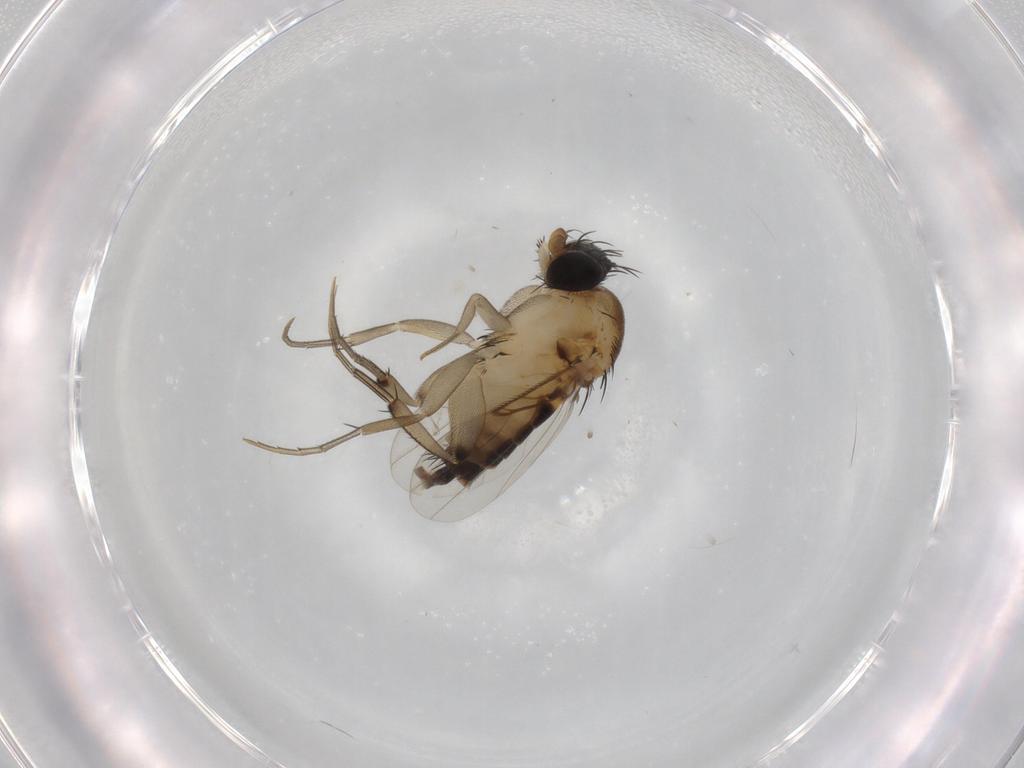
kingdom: Animalia
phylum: Arthropoda
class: Insecta
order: Diptera
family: Phoridae
